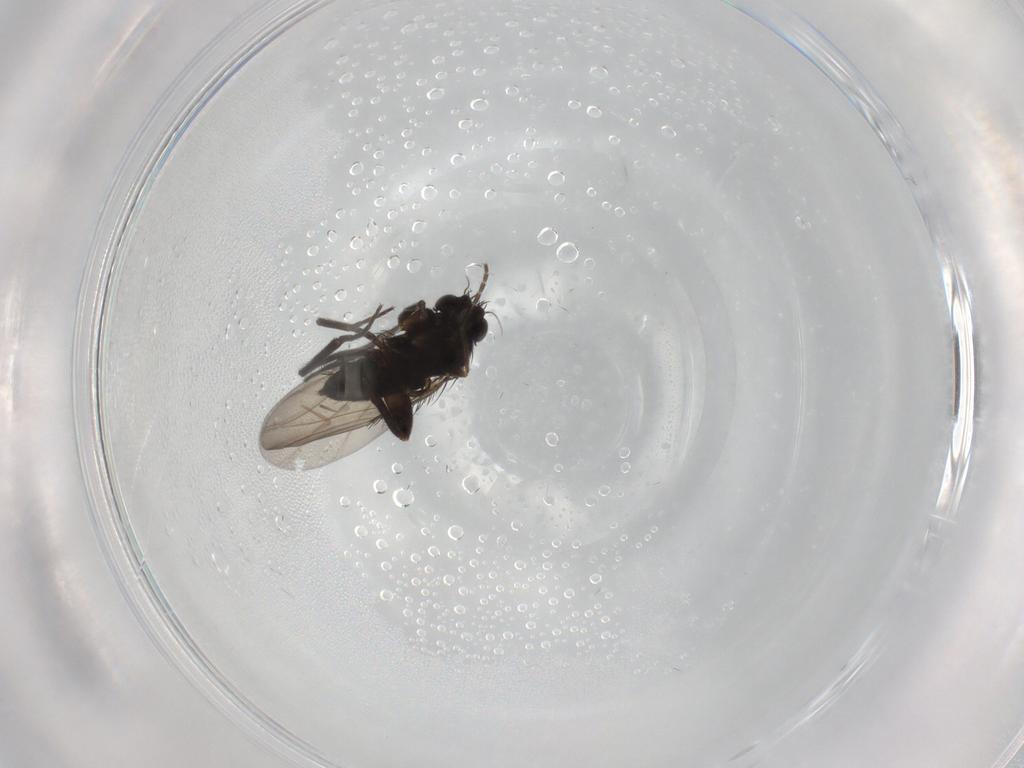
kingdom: Animalia
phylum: Arthropoda
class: Insecta
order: Diptera
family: Phoridae
